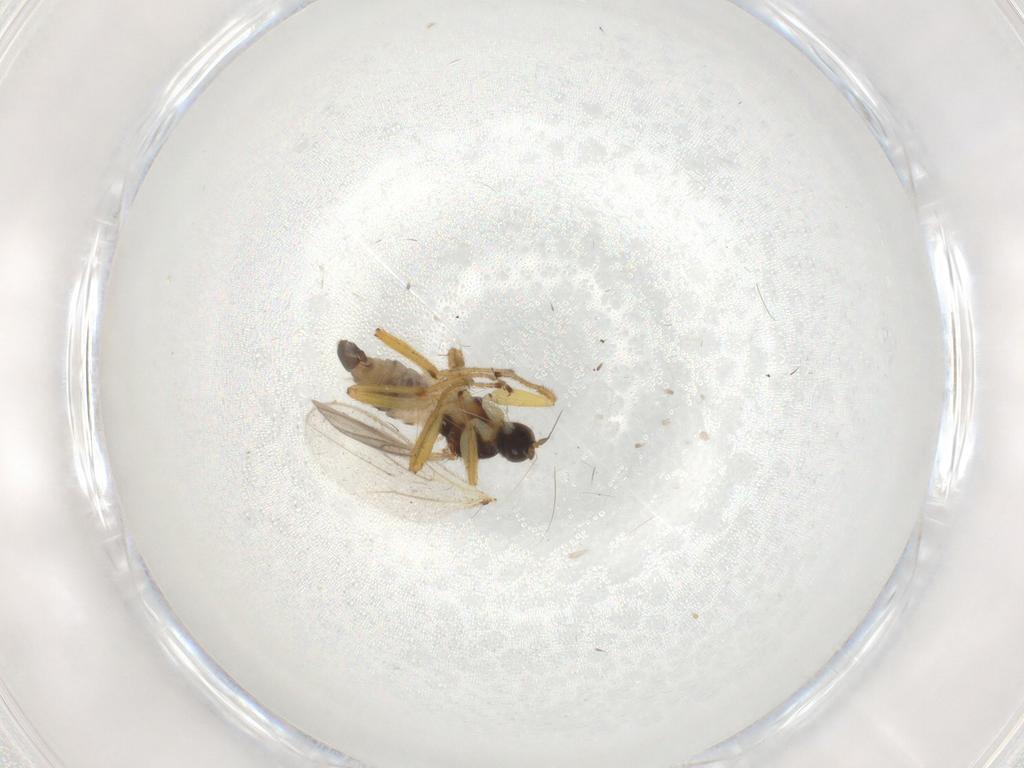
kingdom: Animalia
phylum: Arthropoda
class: Insecta
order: Diptera
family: Hybotidae
